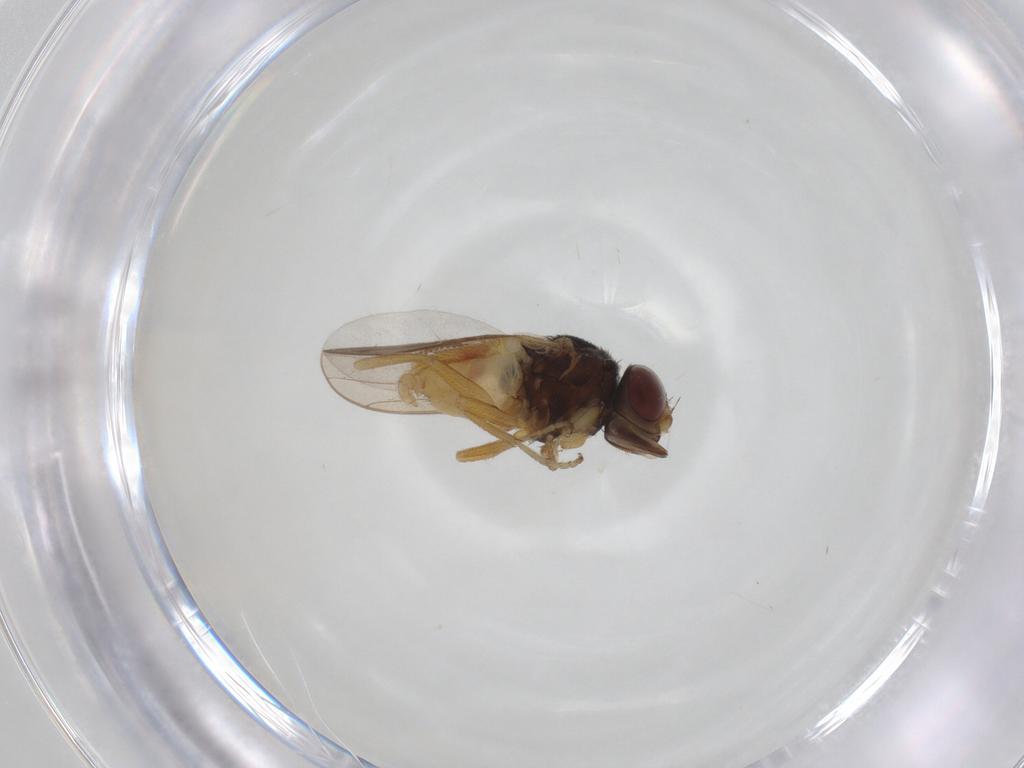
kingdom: Animalia
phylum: Arthropoda
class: Insecta
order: Diptera
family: Chloropidae
